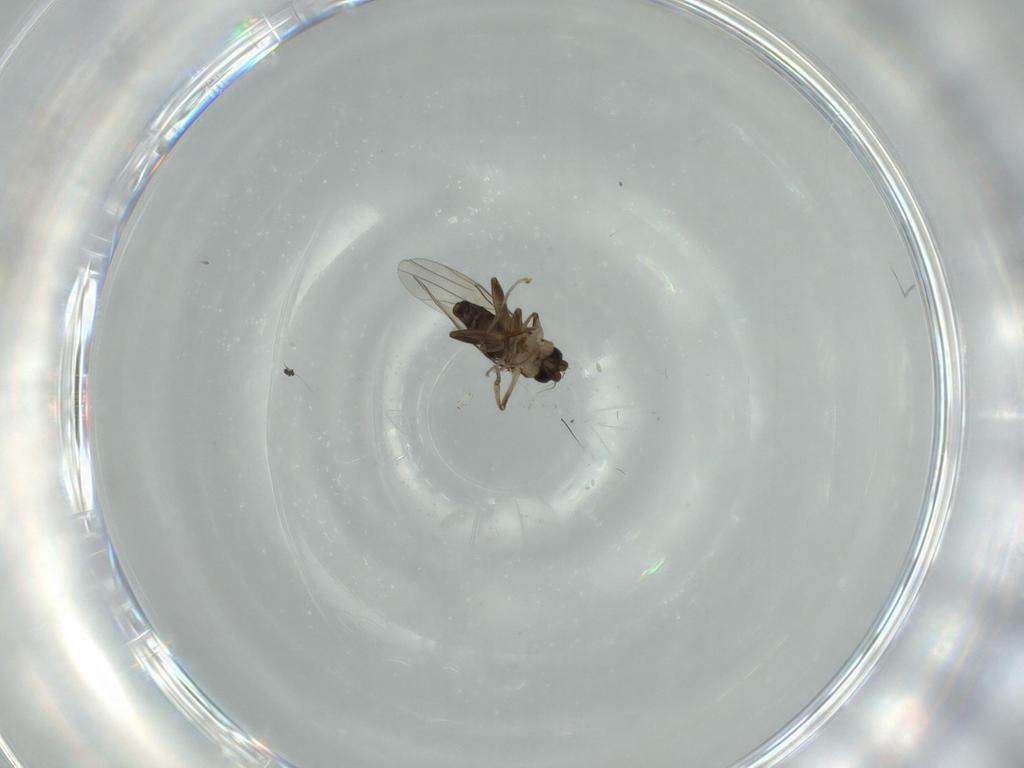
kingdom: Animalia
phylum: Arthropoda
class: Insecta
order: Diptera
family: Phoridae
